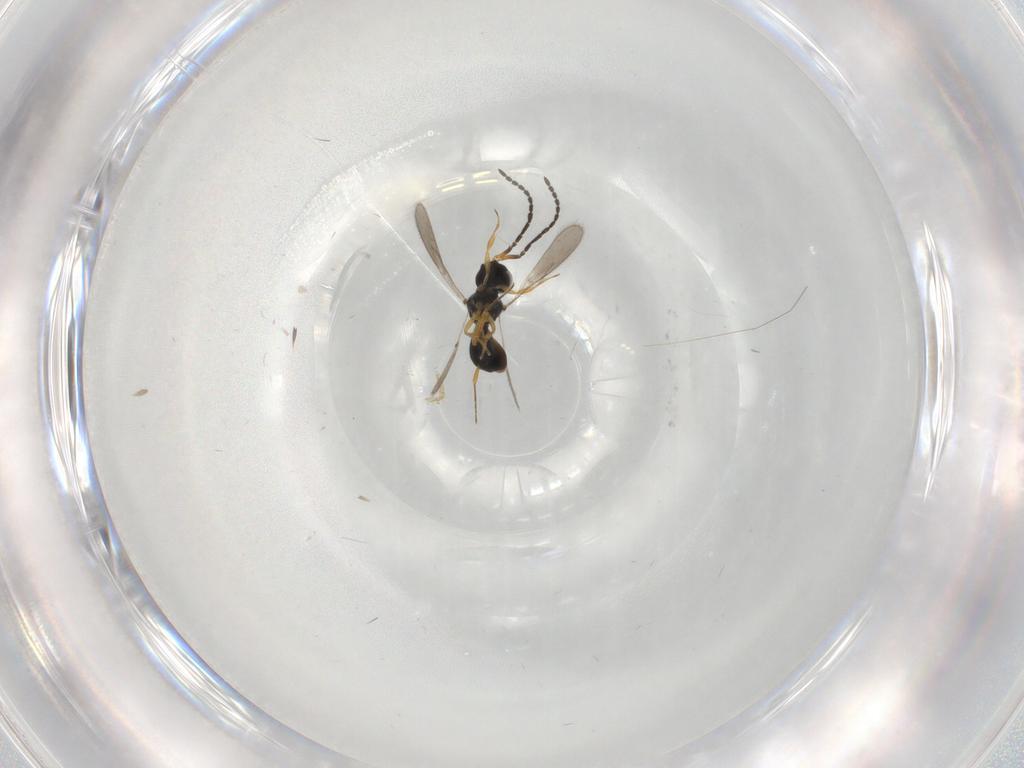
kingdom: Animalia
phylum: Arthropoda
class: Insecta
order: Hymenoptera
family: Scelionidae
